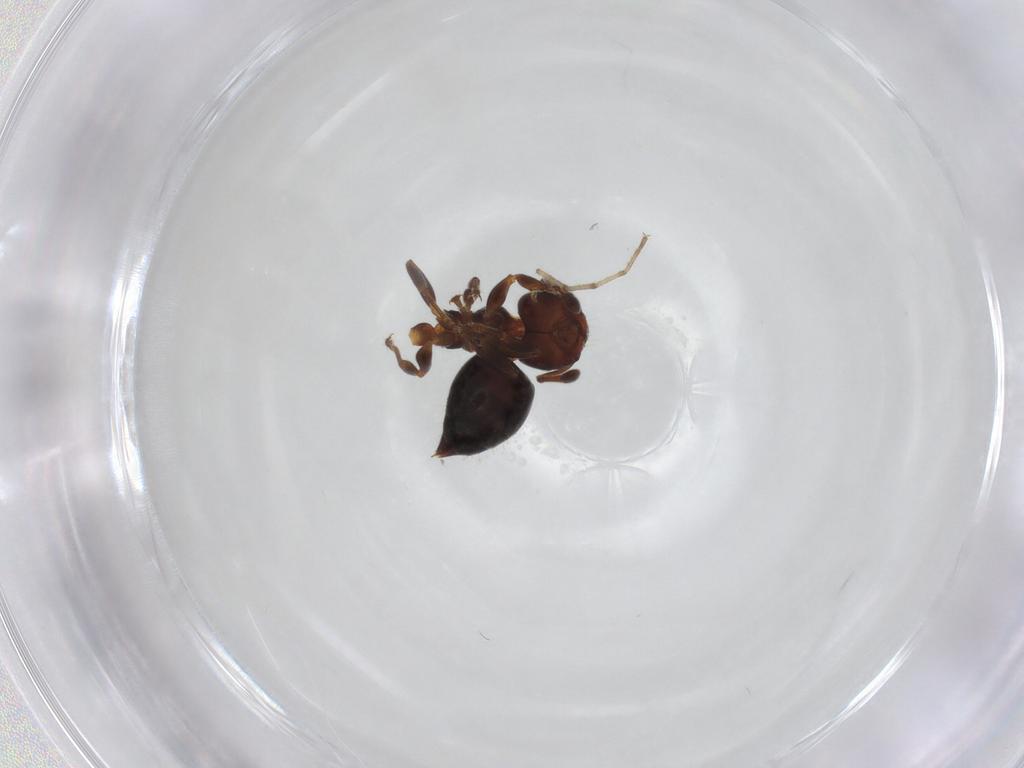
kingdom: Animalia
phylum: Arthropoda
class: Insecta
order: Hymenoptera
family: Formicidae
